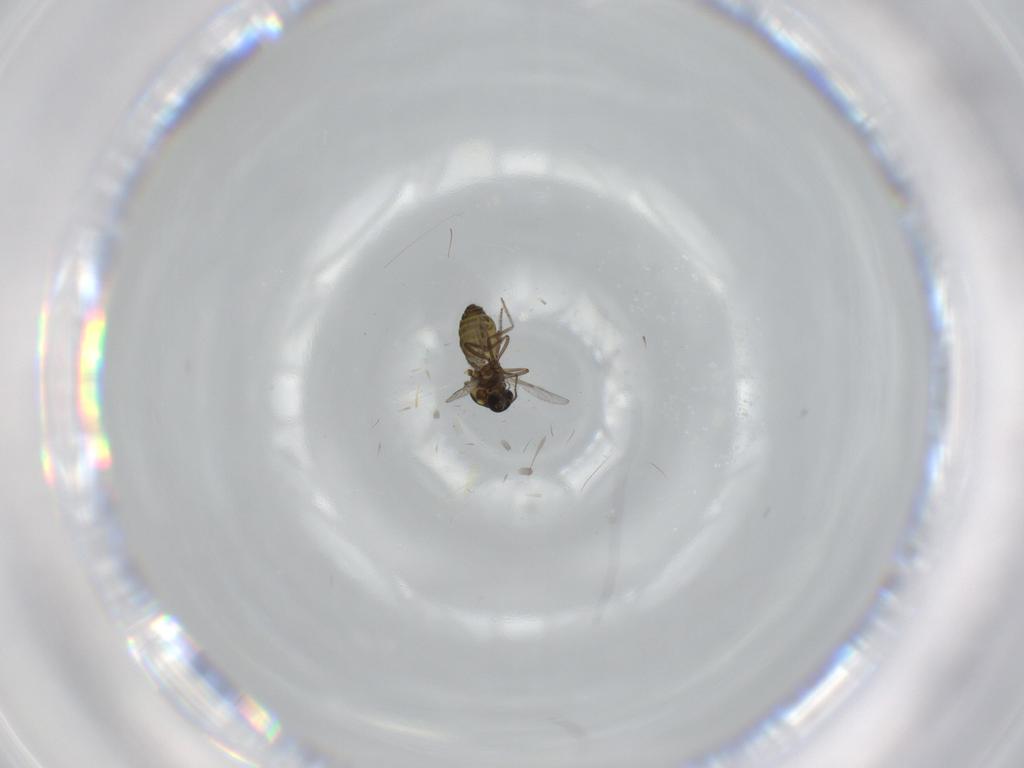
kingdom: Animalia
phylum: Arthropoda
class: Insecta
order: Diptera
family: Ceratopogonidae
